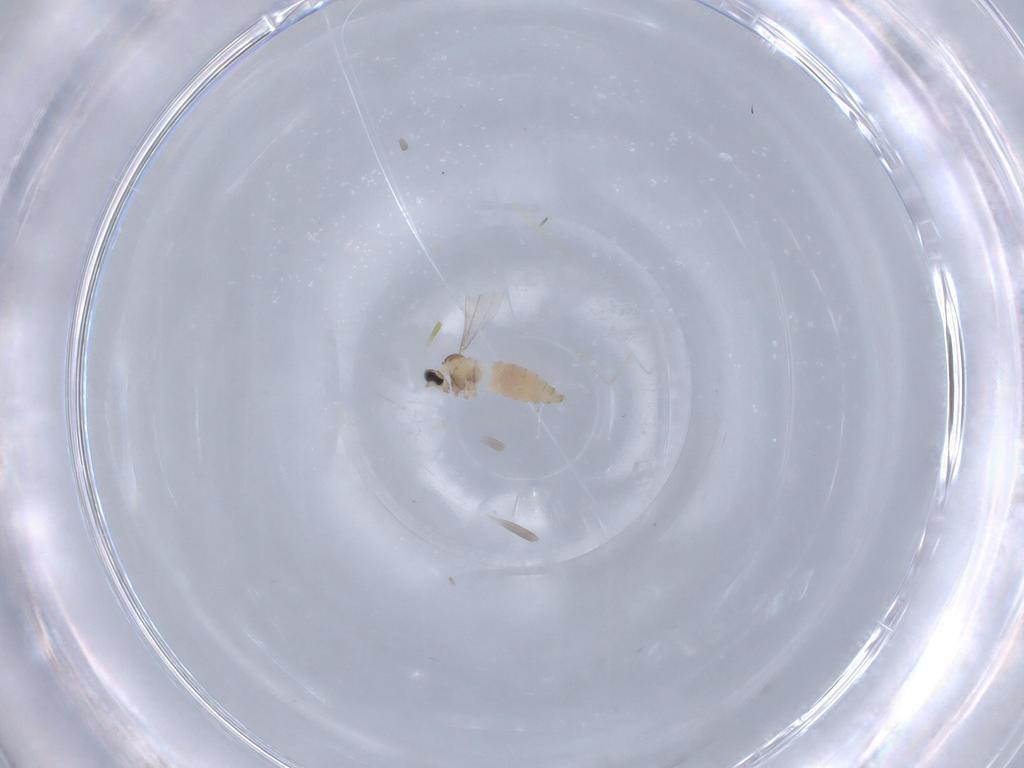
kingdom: Animalia
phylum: Arthropoda
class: Insecta
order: Diptera
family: Cecidomyiidae
